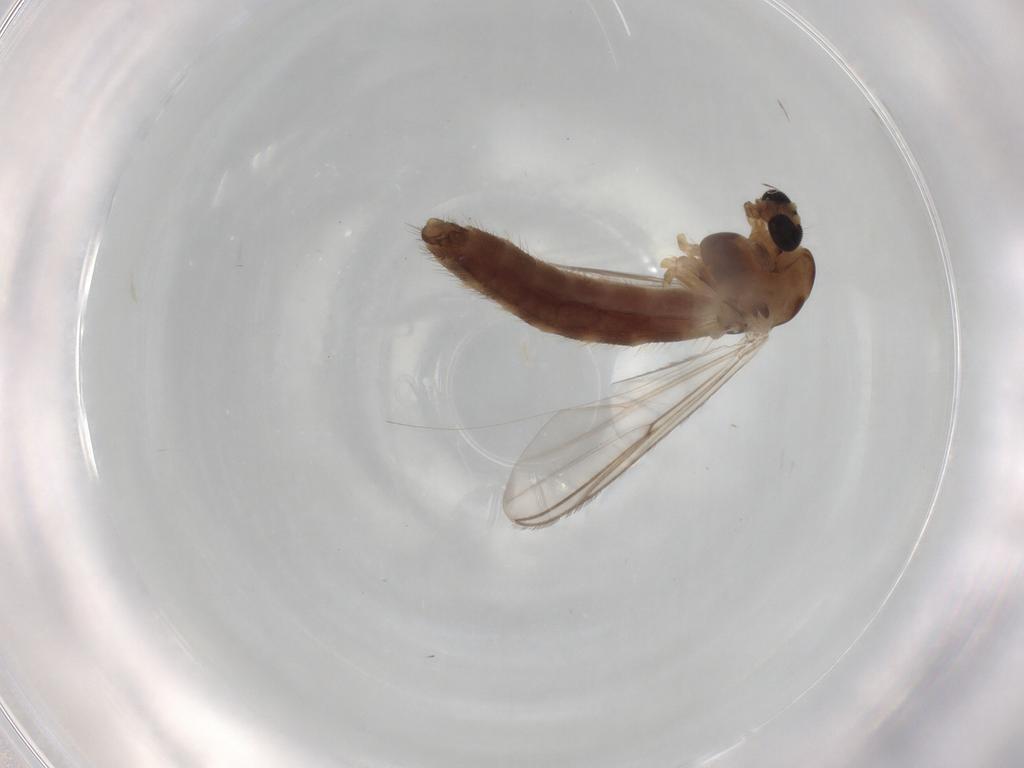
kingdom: Animalia
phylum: Arthropoda
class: Insecta
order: Diptera
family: Chironomidae
